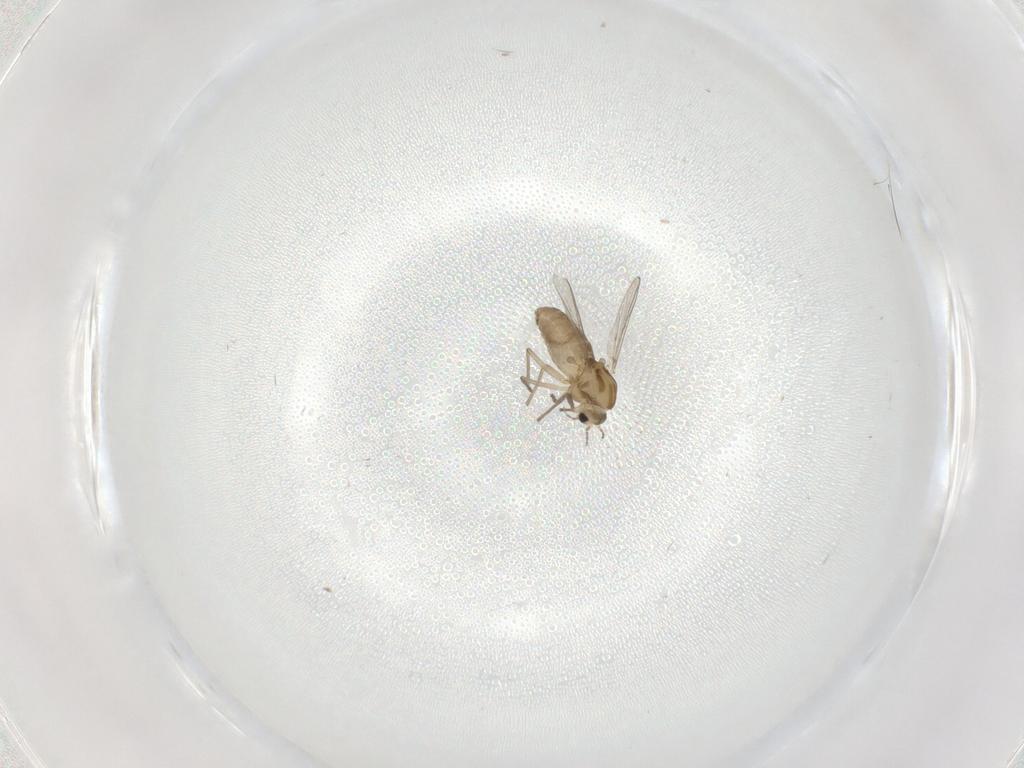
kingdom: Animalia
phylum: Arthropoda
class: Insecta
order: Diptera
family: Chironomidae
